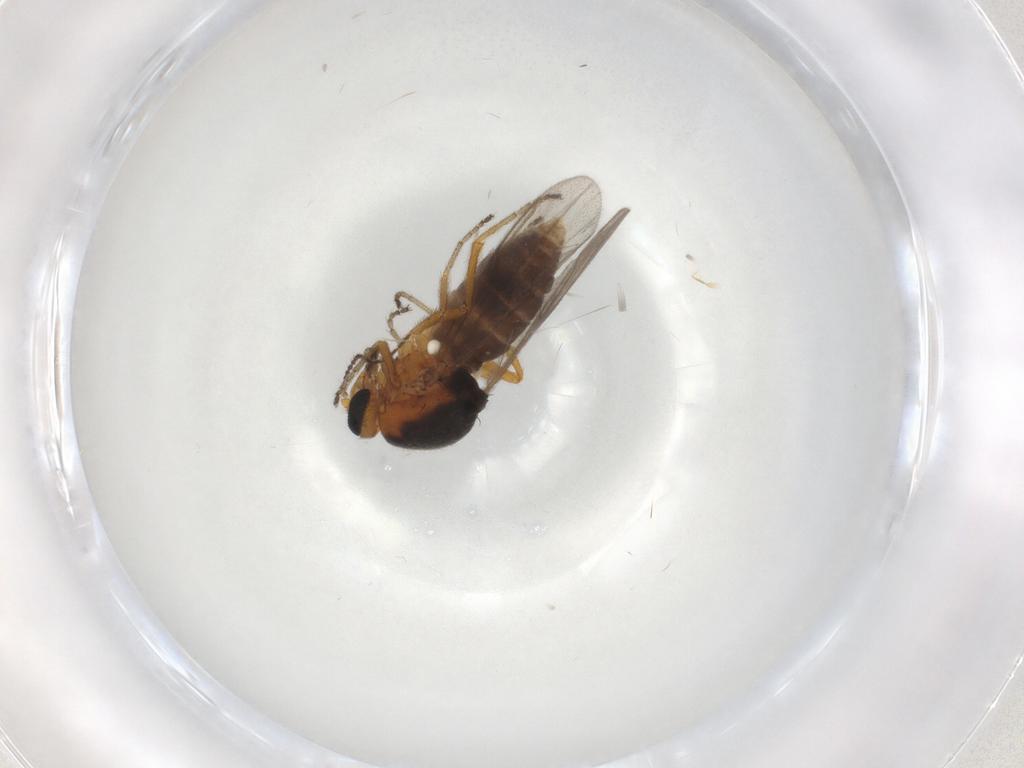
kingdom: Animalia
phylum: Arthropoda
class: Insecta
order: Diptera
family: Ceratopogonidae
